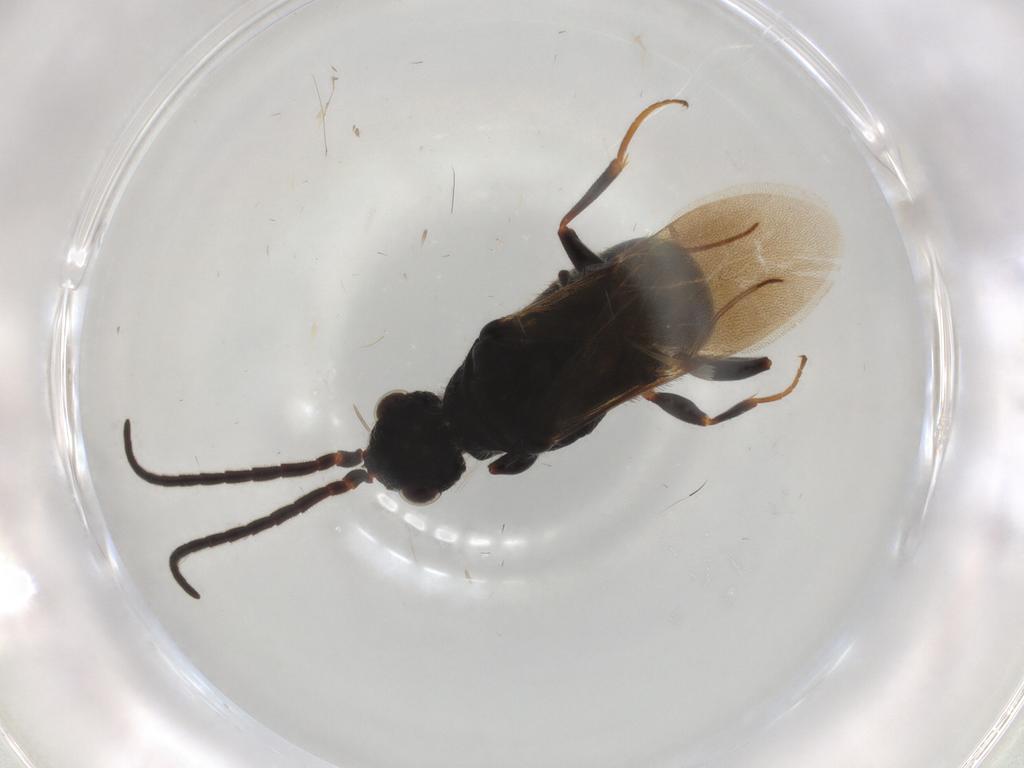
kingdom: Animalia
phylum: Arthropoda
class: Insecta
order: Hymenoptera
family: Bethylidae
